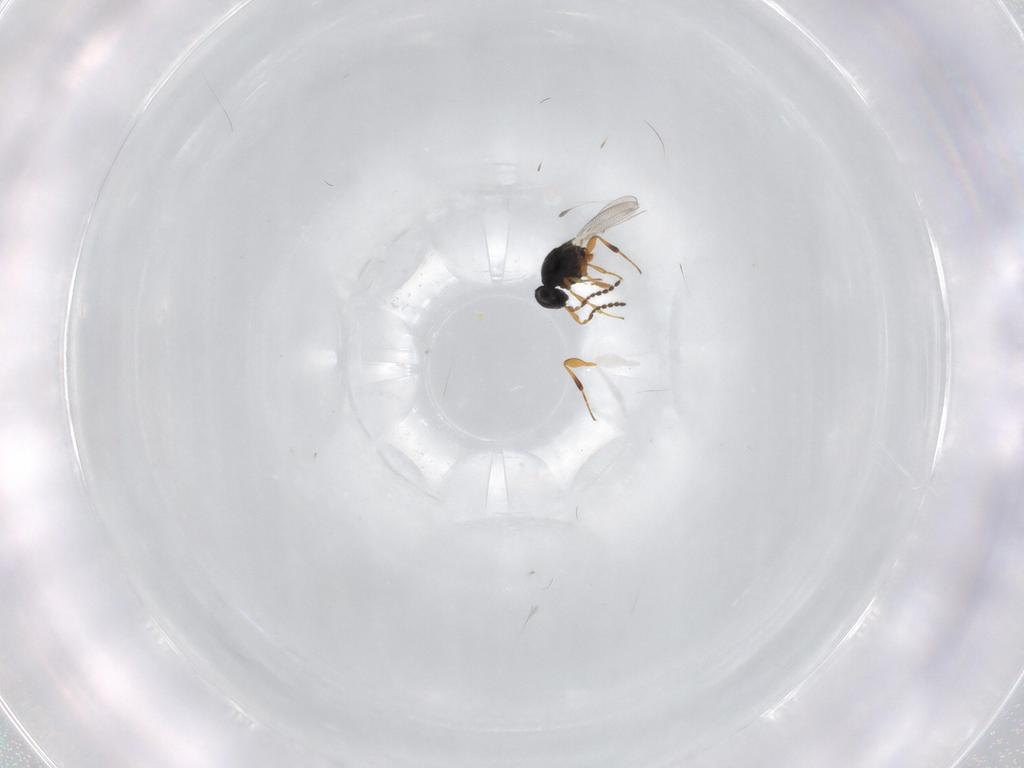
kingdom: Animalia
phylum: Arthropoda
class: Insecta
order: Hymenoptera
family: Platygastridae
